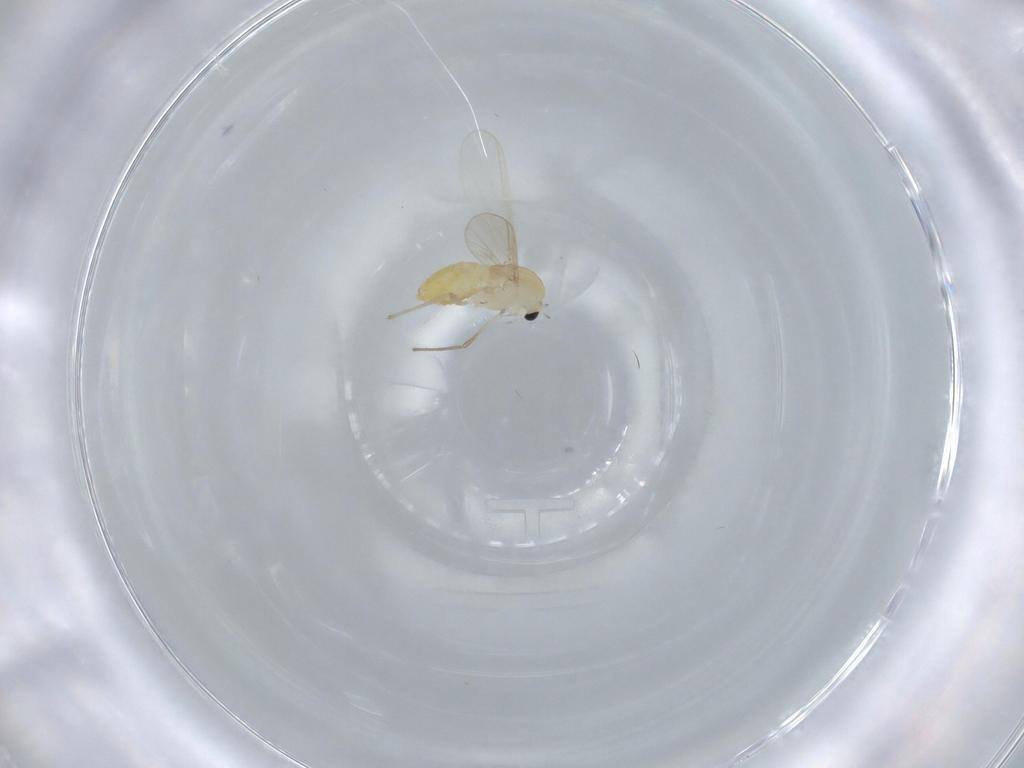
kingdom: Animalia
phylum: Arthropoda
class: Insecta
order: Diptera
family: Chironomidae
